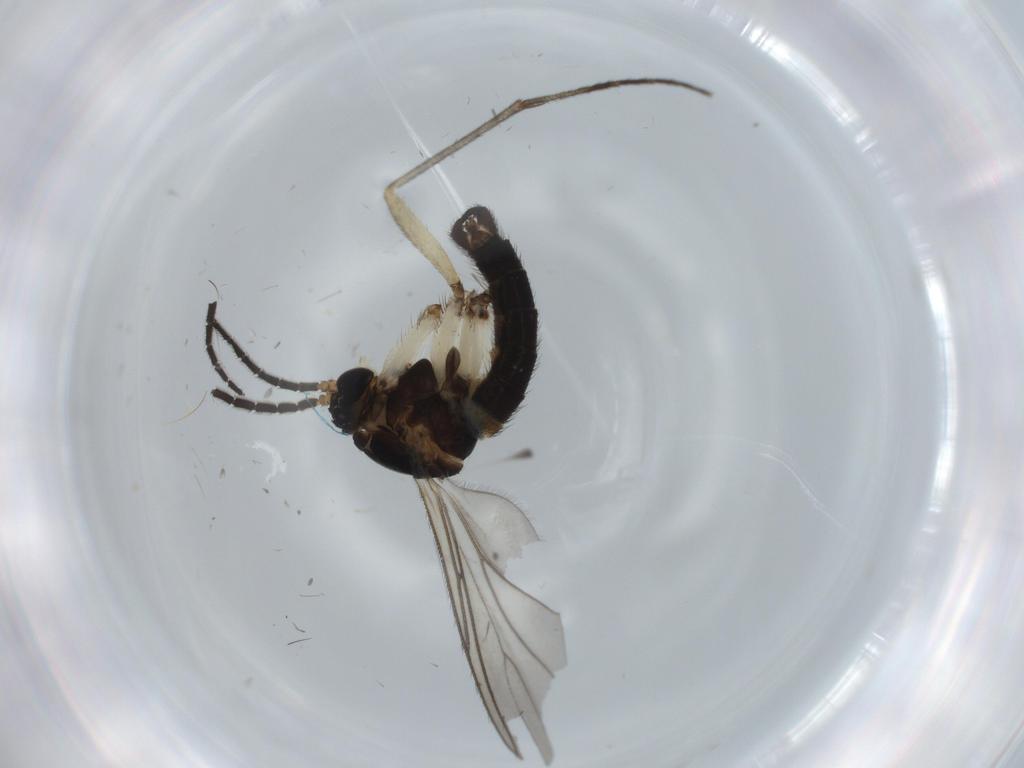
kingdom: Animalia
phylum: Arthropoda
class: Insecta
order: Diptera
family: Sciaridae
